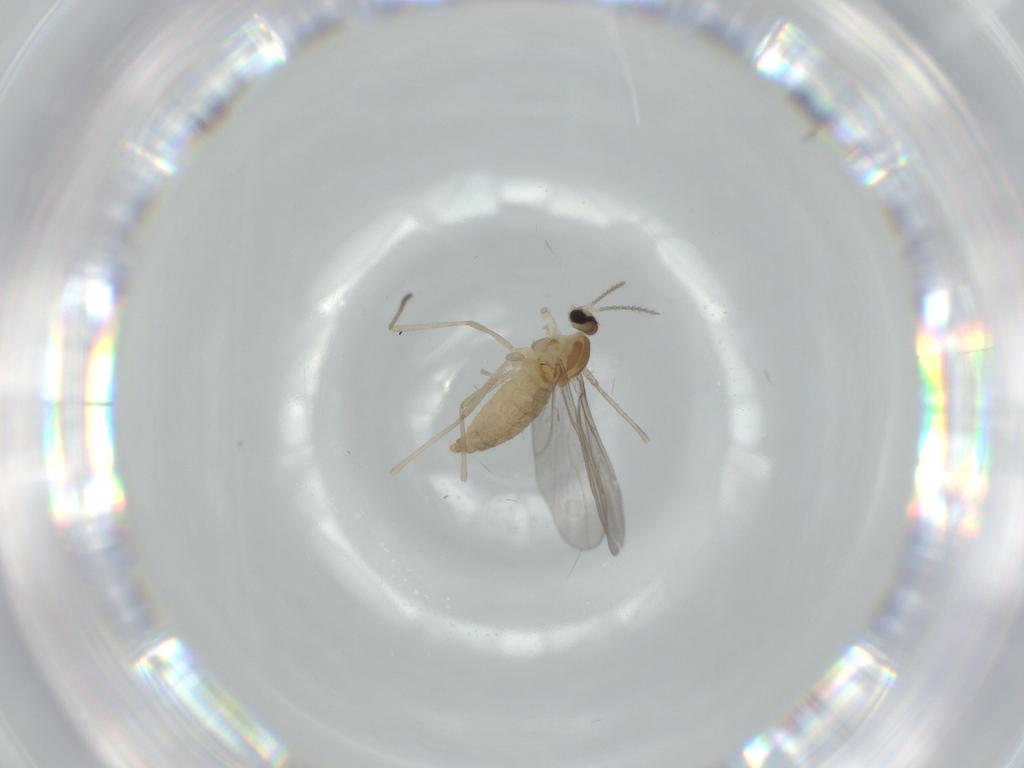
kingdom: Animalia
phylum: Arthropoda
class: Insecta
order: Diptera
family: Cecidomyiidae
